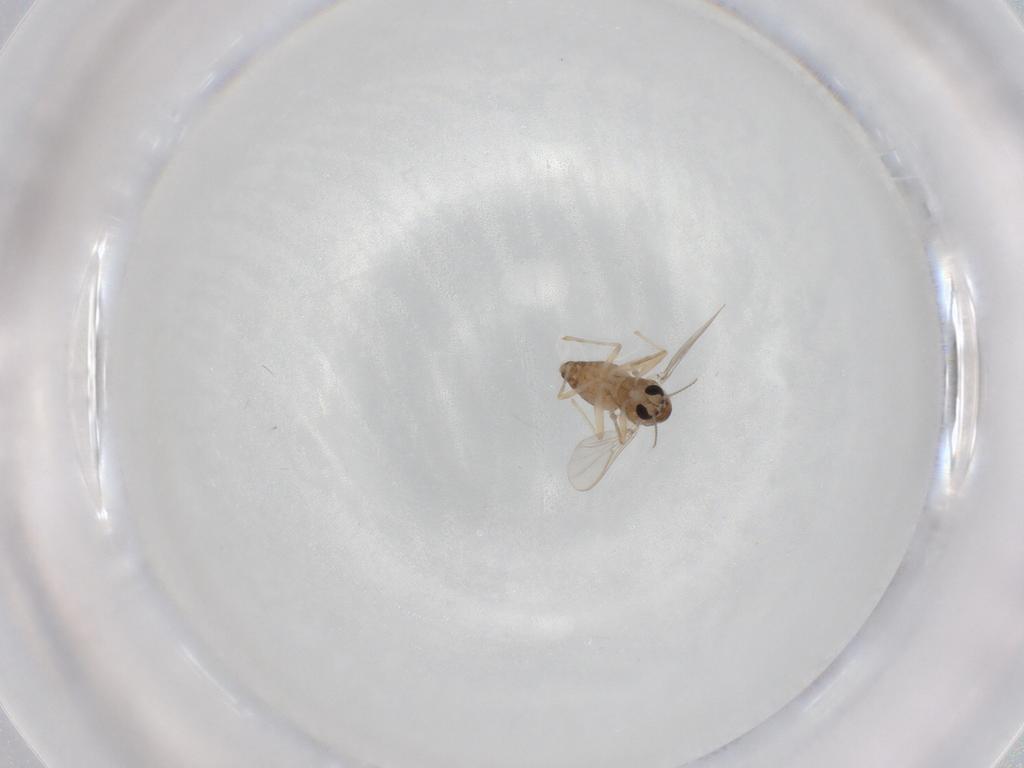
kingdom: Animalia
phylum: Arthropoda
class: Insecta
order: Diptera
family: Chironomidae
